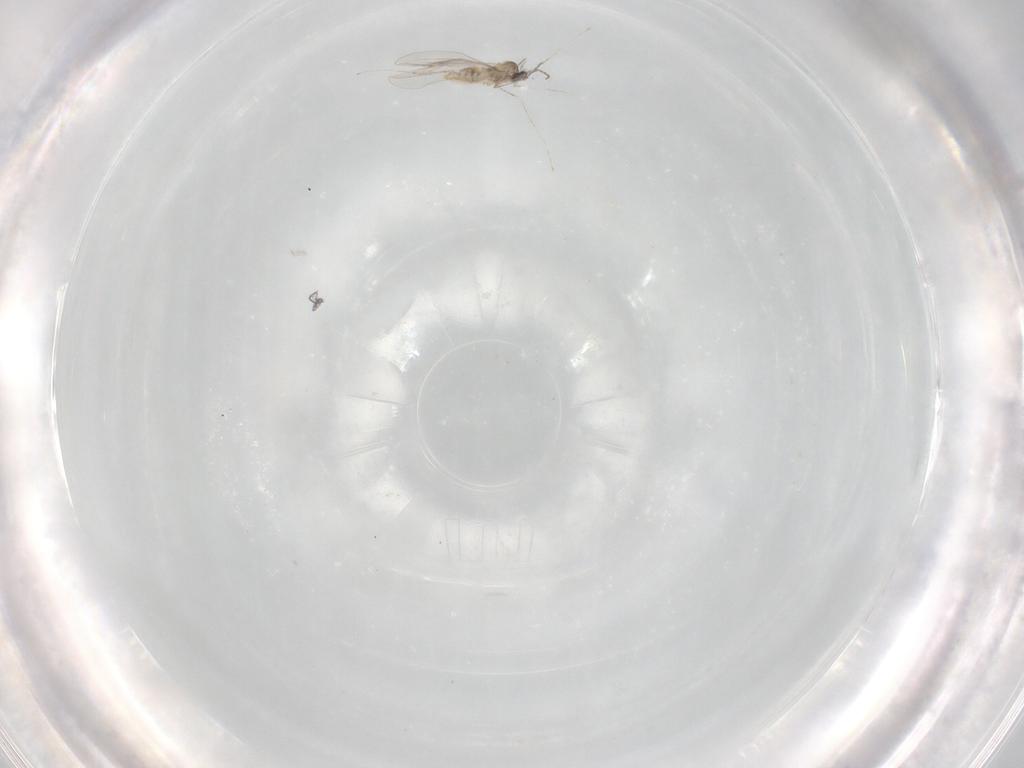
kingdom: Animalia
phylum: Arthropoda
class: Insecta
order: Diptera
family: Cecidomyiidae
